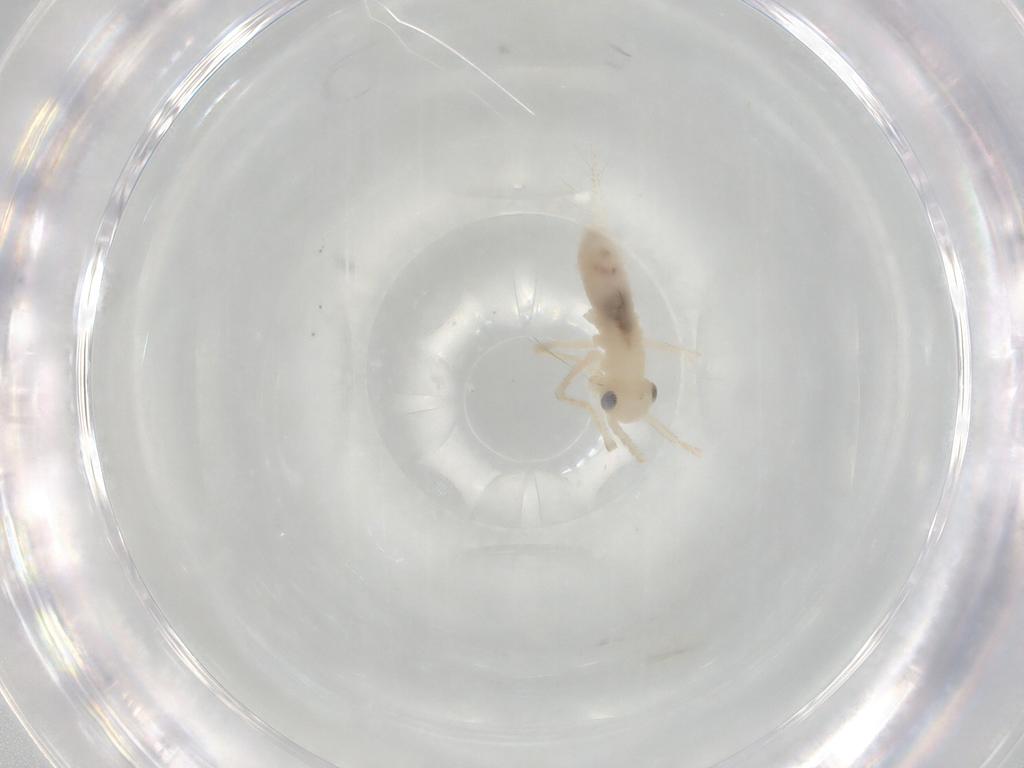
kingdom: Animalia
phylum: Arthropoda
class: Insecta
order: Orthoptera
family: Trigonidiidae
